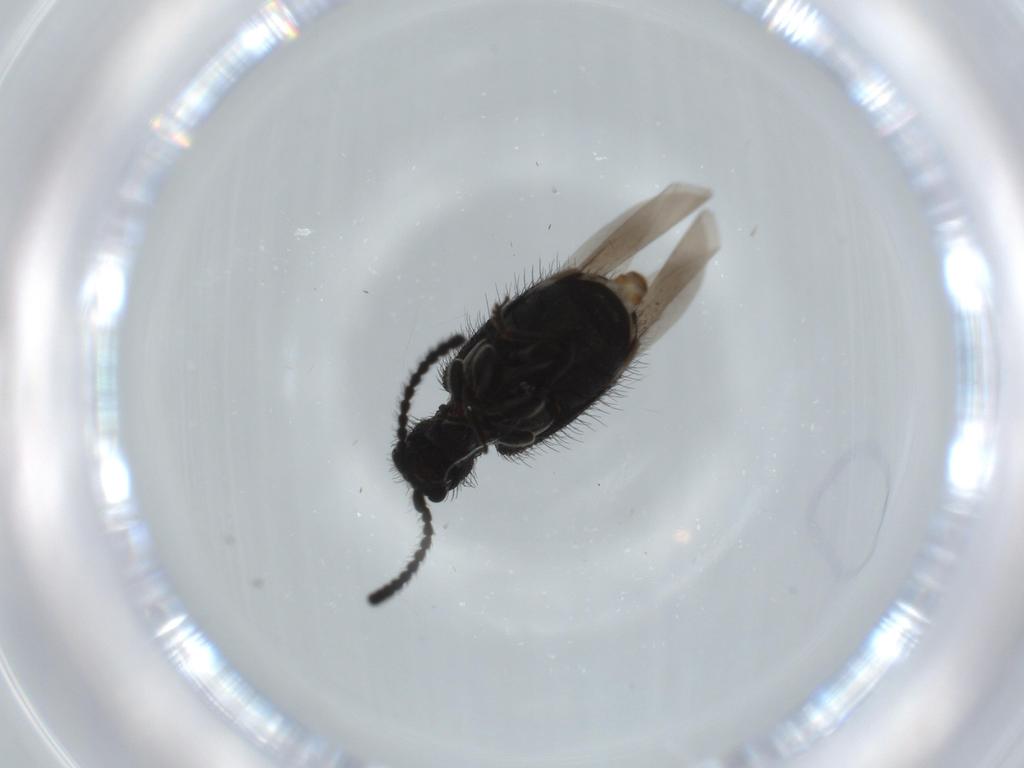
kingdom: Animalia
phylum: Arthropoda
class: Insecta
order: Coleoptera
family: Ptinidae
